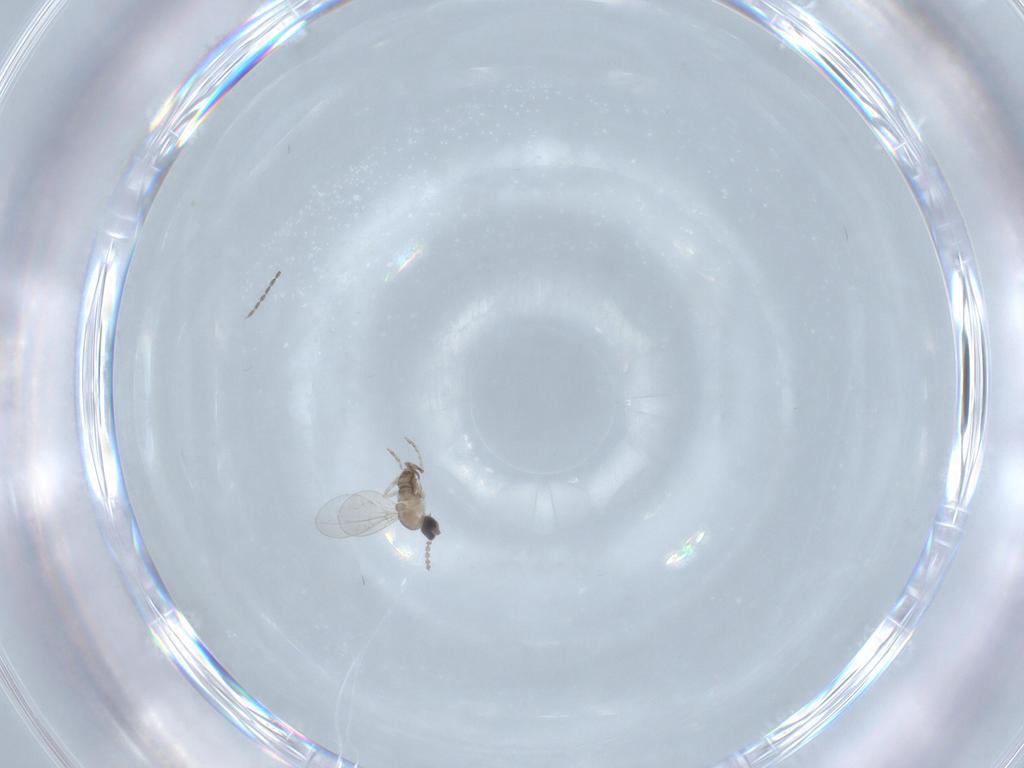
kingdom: Animalia
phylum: Arthropoda
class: Insecta
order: Diptera
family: Cecidomyiidae
